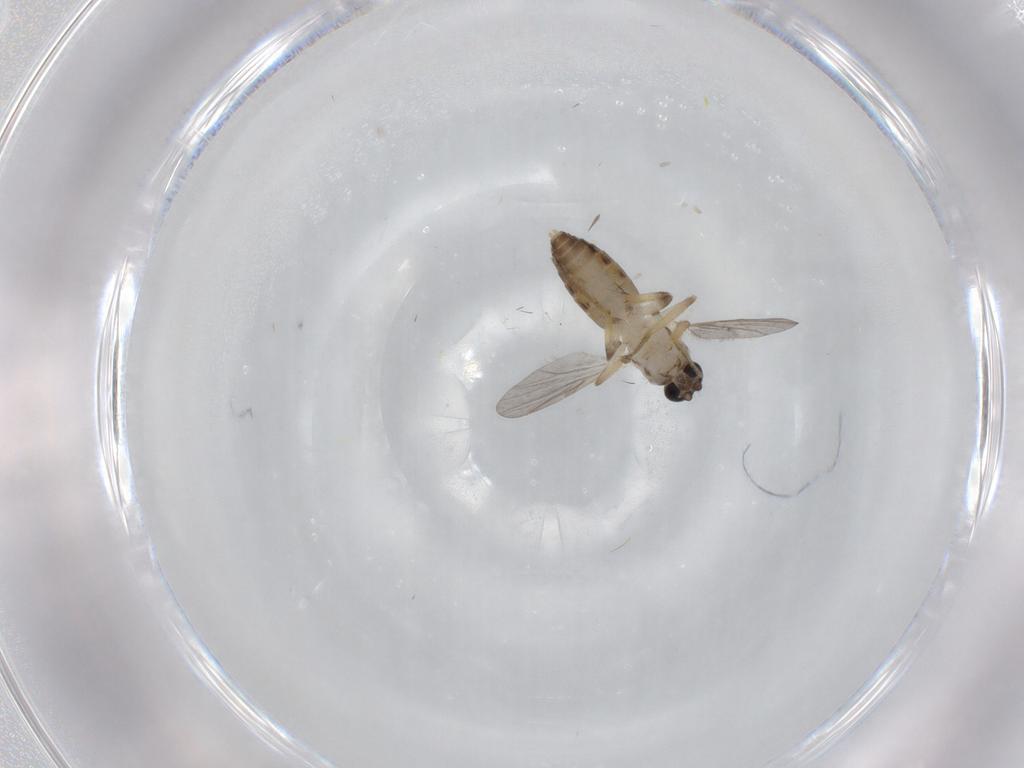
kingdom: Animalia
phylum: Arthropoda
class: Insecta
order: Diptera
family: Ceratopogonidae
